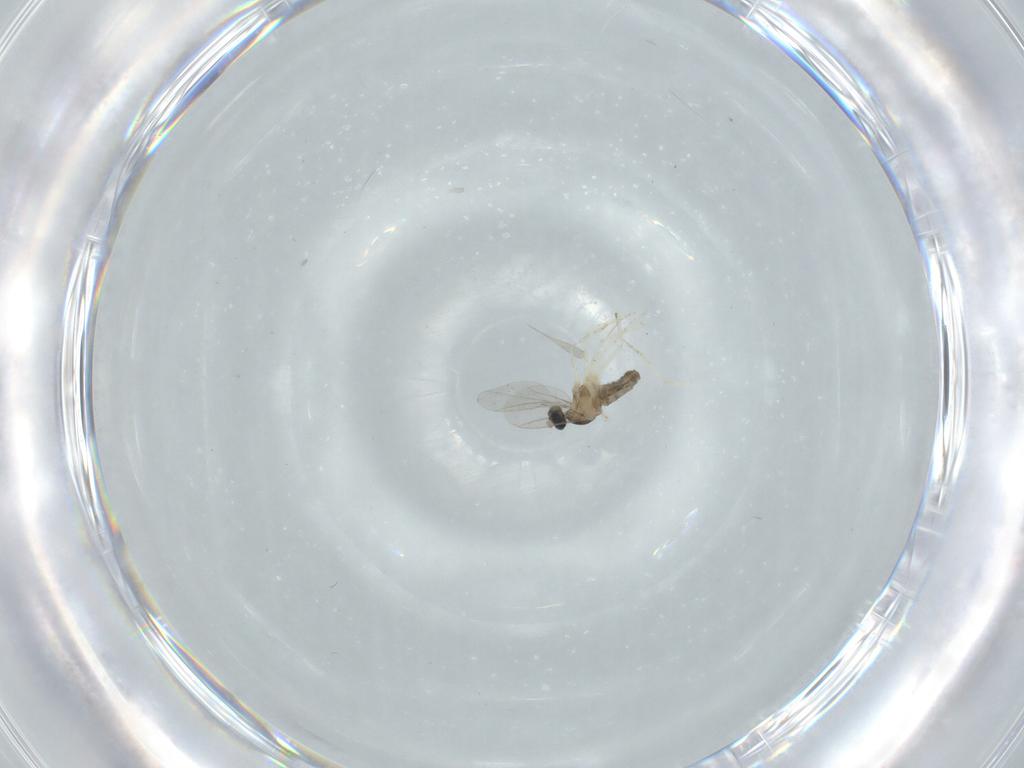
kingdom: Animalia
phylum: Arthropoda
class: Insecta
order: Diptera
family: Cecidomyiidae
